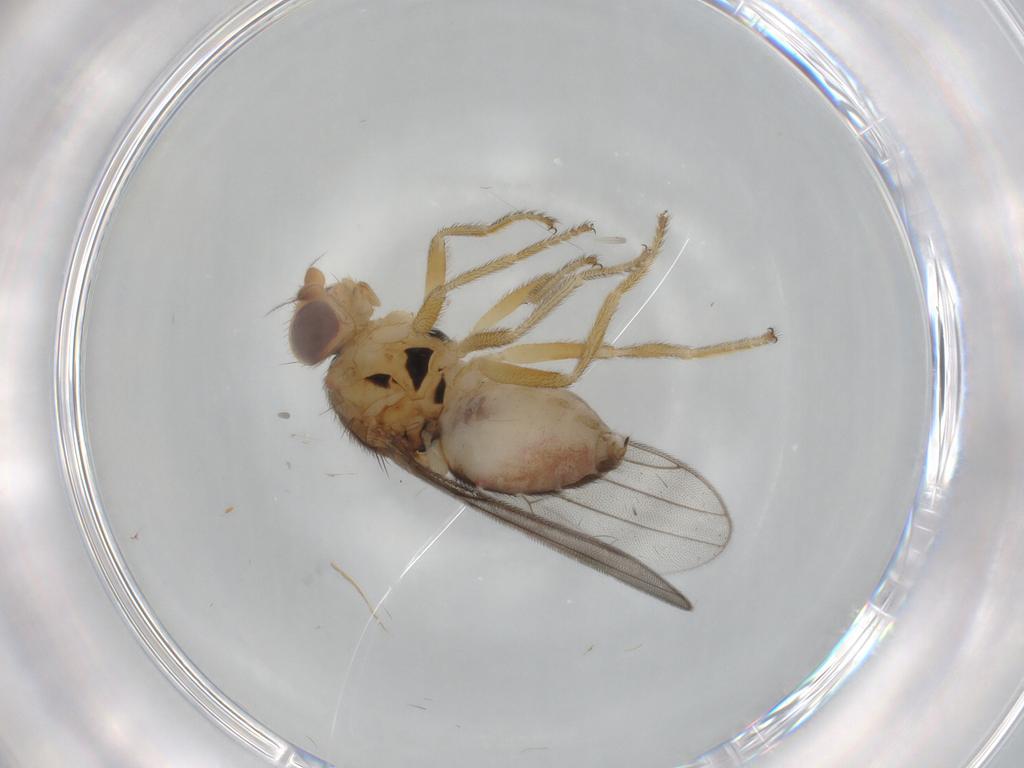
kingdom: Animalia
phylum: Arthropoda
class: Insecta
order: Diptera
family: Chloropidae
